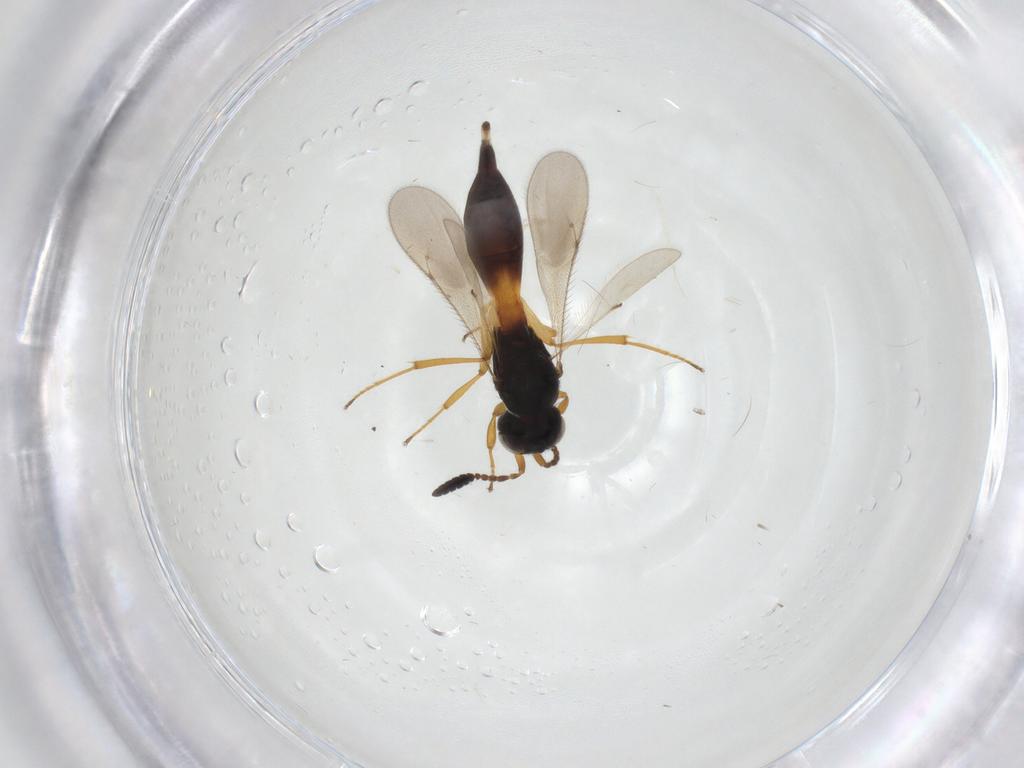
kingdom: Animalia
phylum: Arthropoda
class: Insecta
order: Hymenoptera
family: Scelionidae
